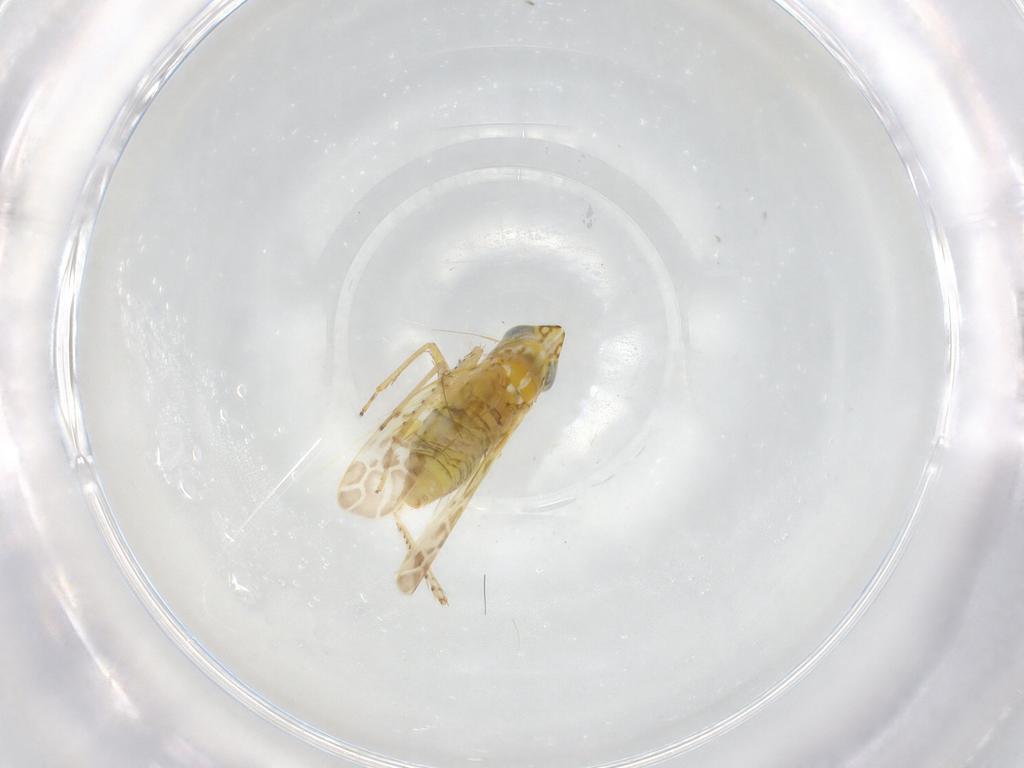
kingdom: Animalia
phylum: Arthropoda
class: Insecta
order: Hemiptera
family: Cicadellidae
